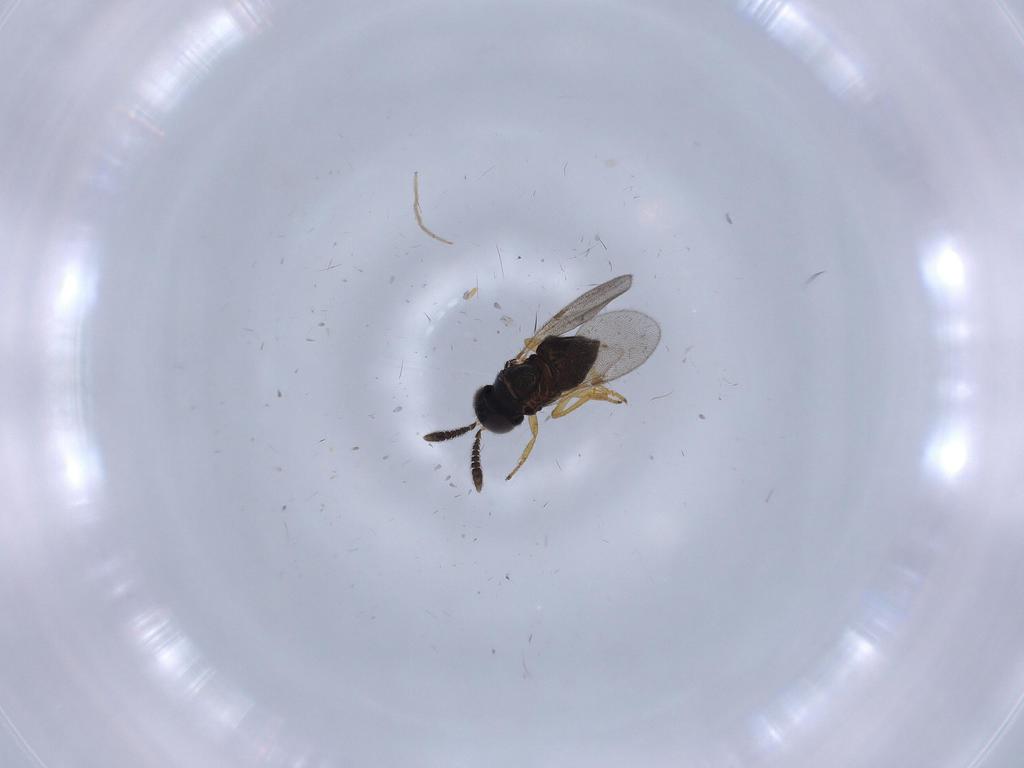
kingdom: Animalia
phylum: Arthropoda
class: Insecta
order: Diptera
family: Chironomidae
